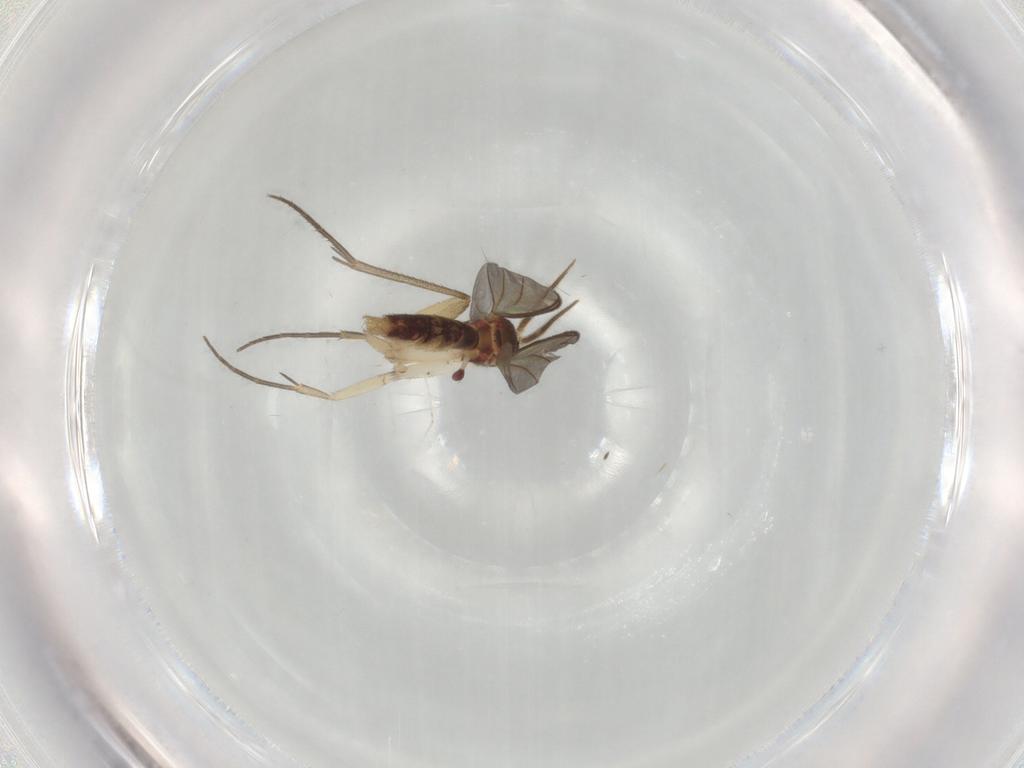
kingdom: Animalia
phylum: Arthropoda
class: Insecta
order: Diptera
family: Mycetophilidae
